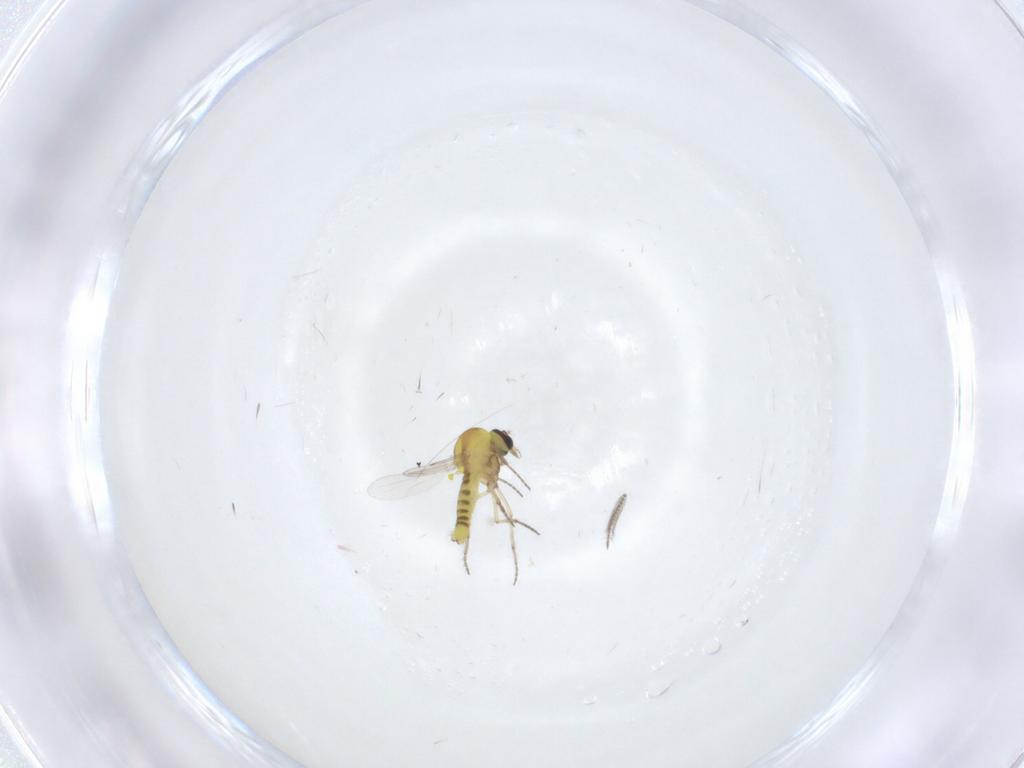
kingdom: Animalia
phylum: Arthropoda
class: Insecta
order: Diptera
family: Ceratopogonidae
